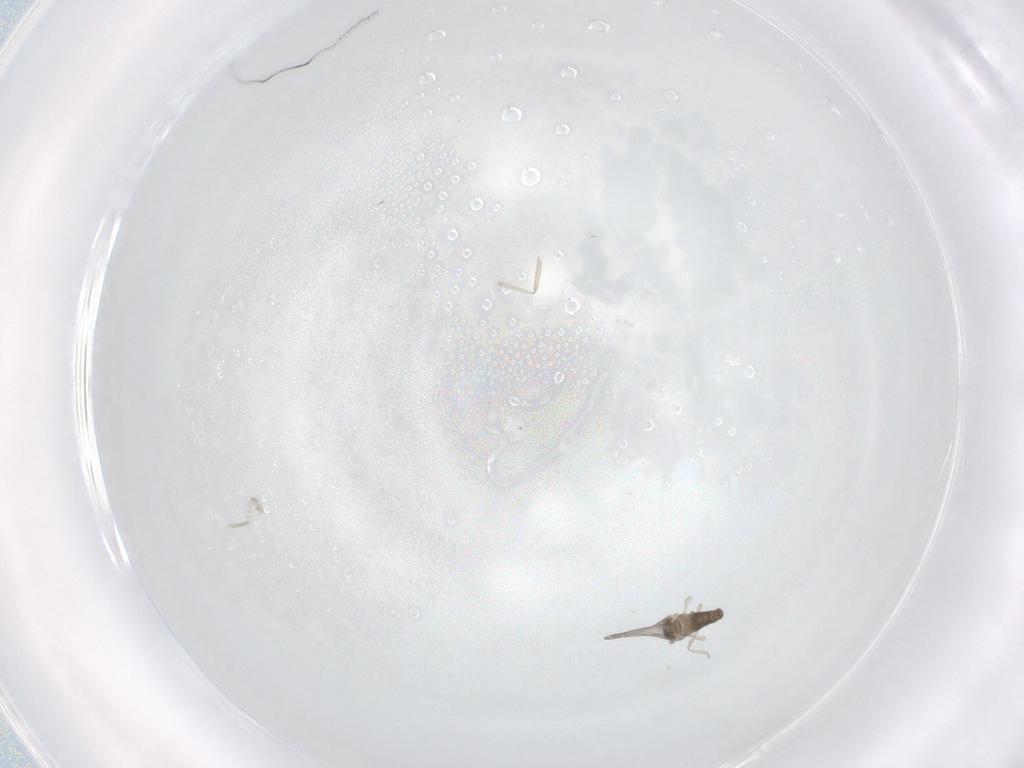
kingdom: Animalia
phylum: Arthropoda
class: Insecta
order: Diptera
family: Cecidomyiidae
